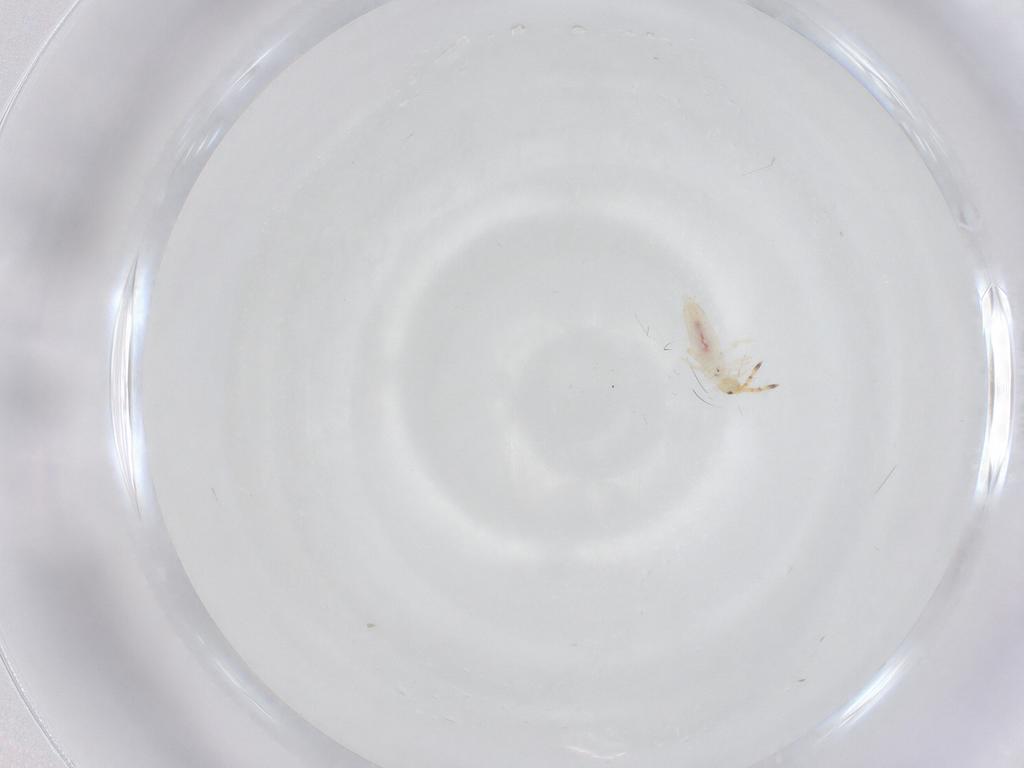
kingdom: Animalia
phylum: Arthropoda
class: Collembola
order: Entomobryomorpha
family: Entomobryidae
